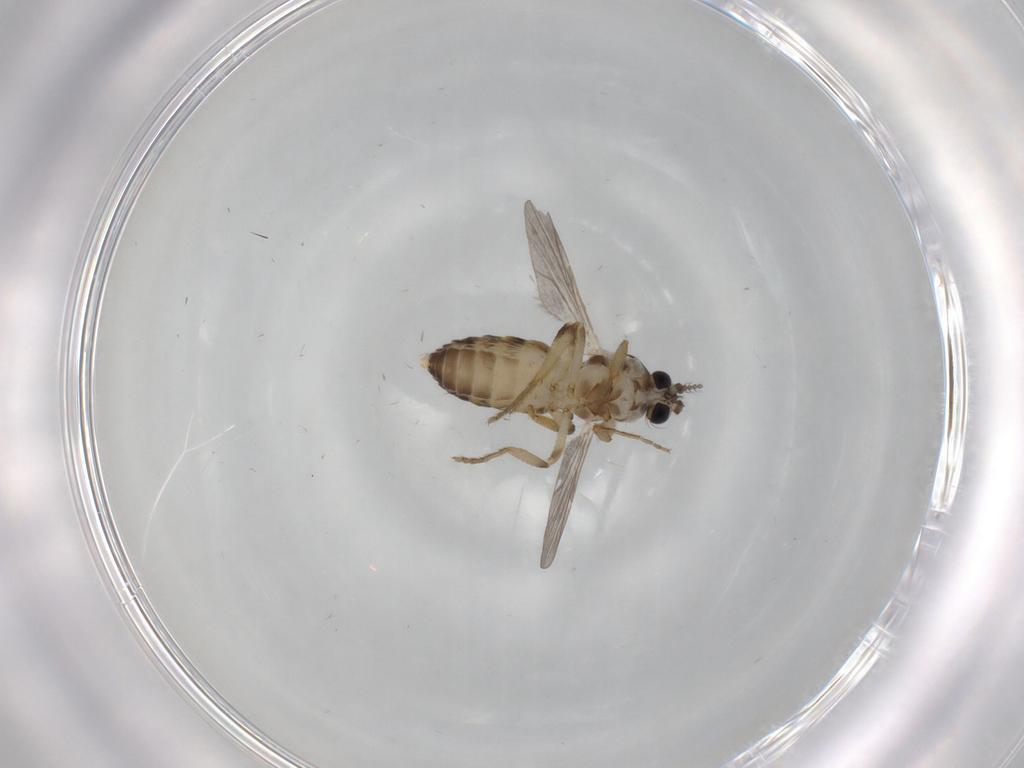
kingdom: Animalia
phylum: Arthropoda
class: Insecta
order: Diptera
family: Ceratopogonidae
